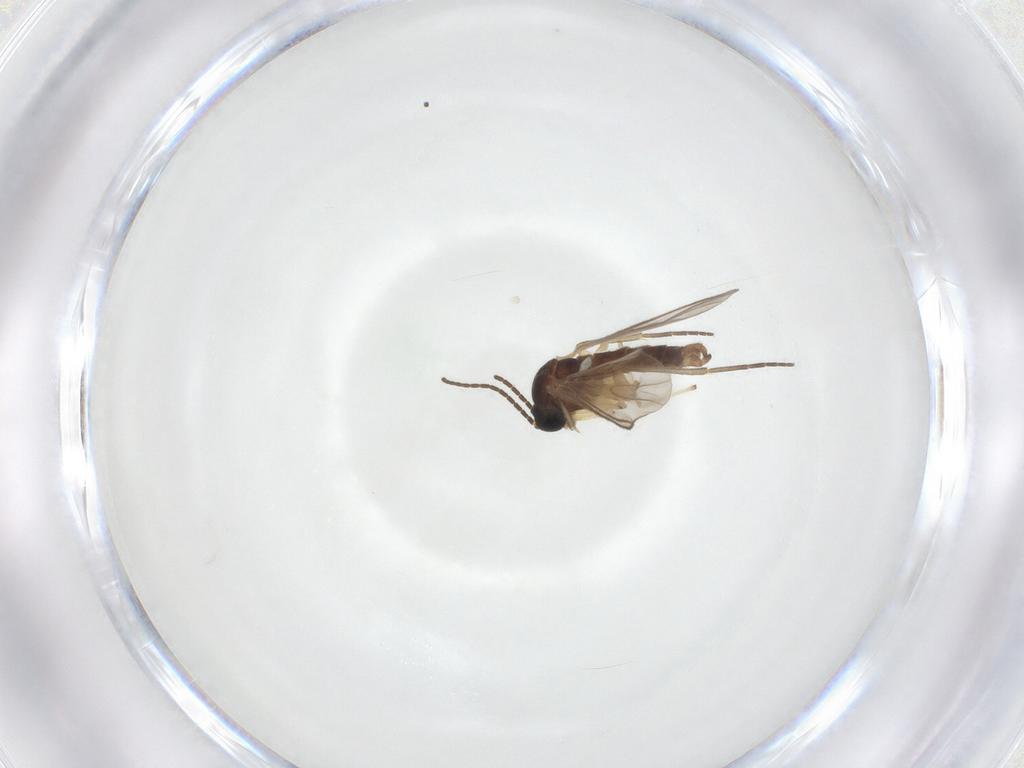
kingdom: Animalia
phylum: Arthropoda
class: Insecta
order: Diptera
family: Sciaridae
